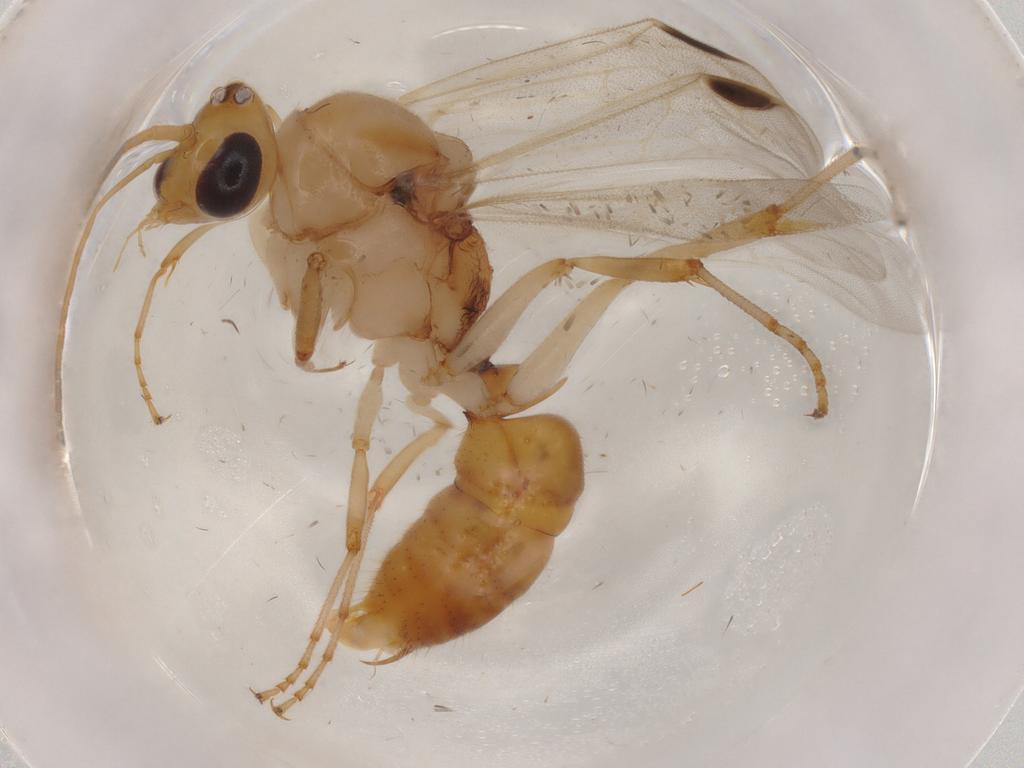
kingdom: Animalia
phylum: Arthropoda
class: Insecta
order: Hymenoptera
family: Formicidae
